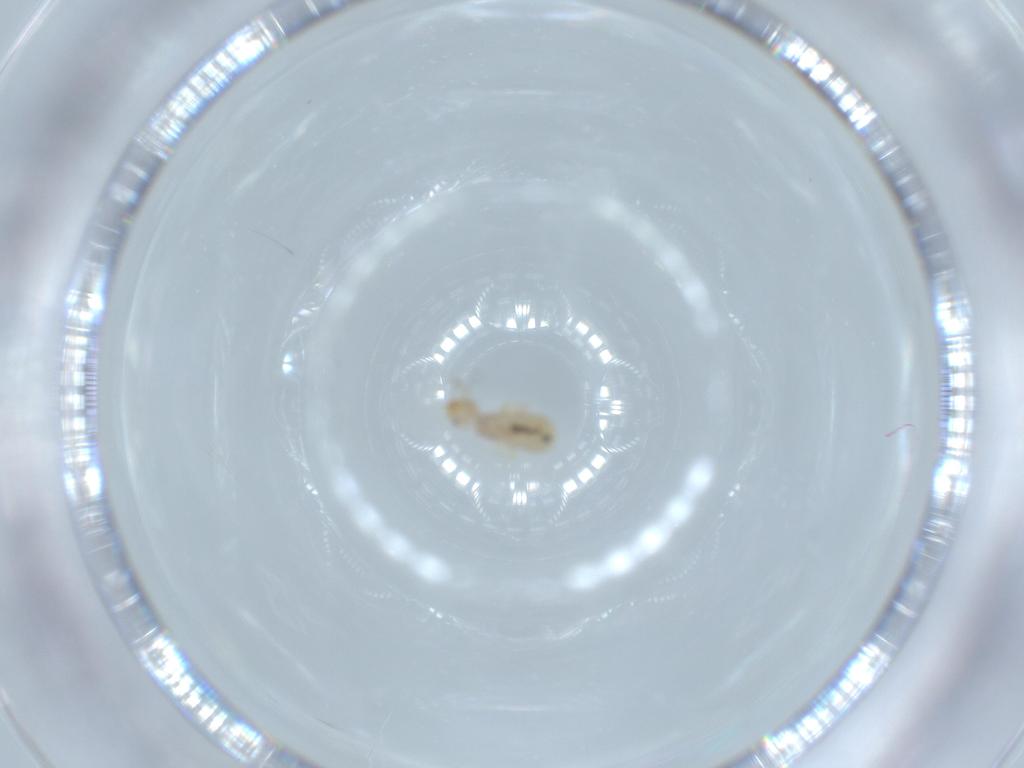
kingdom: Animalia
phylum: Arthropoda
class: Insecta
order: Psocodea
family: Liposcelididae
